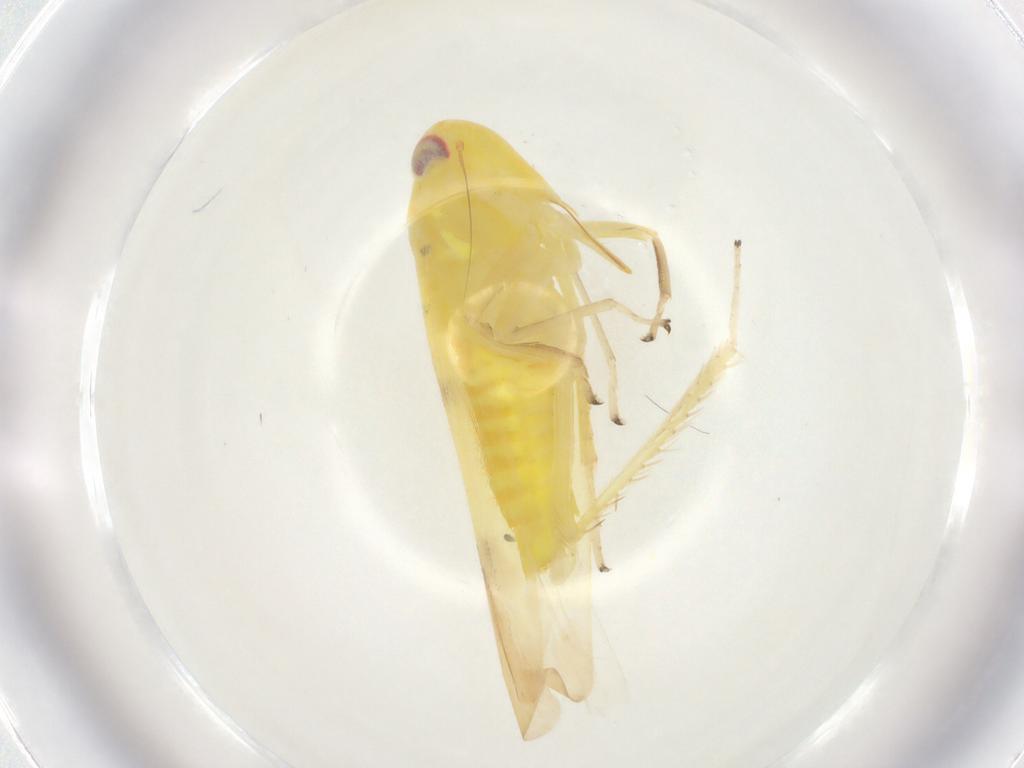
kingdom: Animalia
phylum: Arthropoda
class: Insecta
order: Hemiptera
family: Cicadellidae
